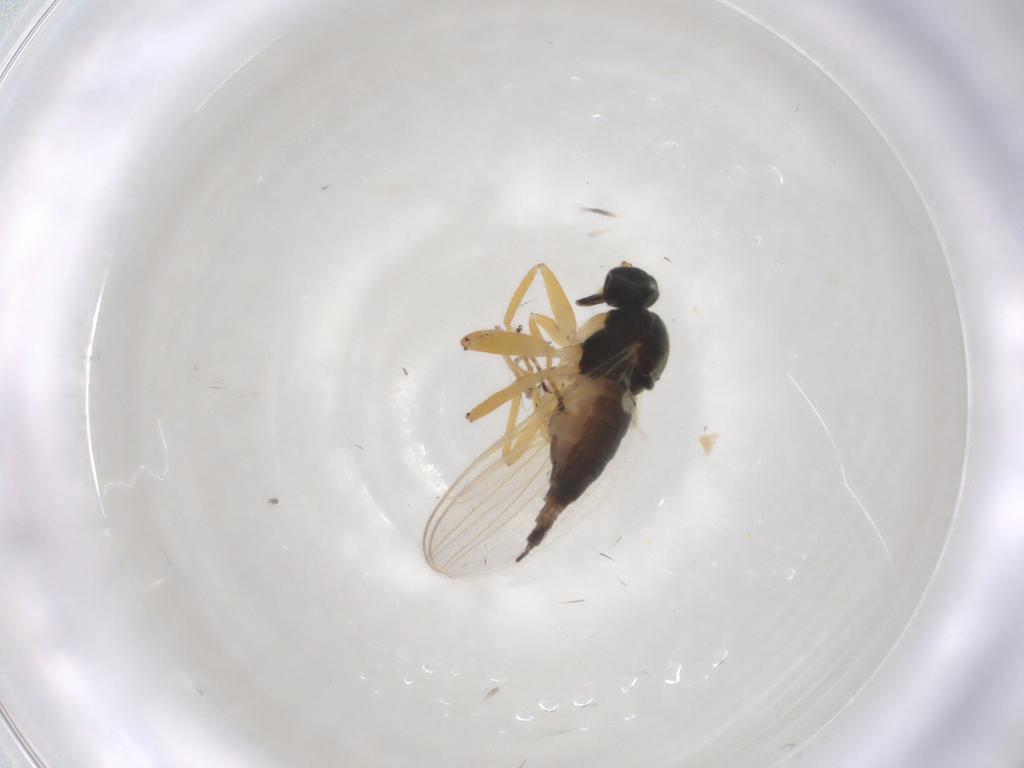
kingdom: Animalia
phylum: Arthropoda
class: Insecta
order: Diptera
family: Hybotidae
